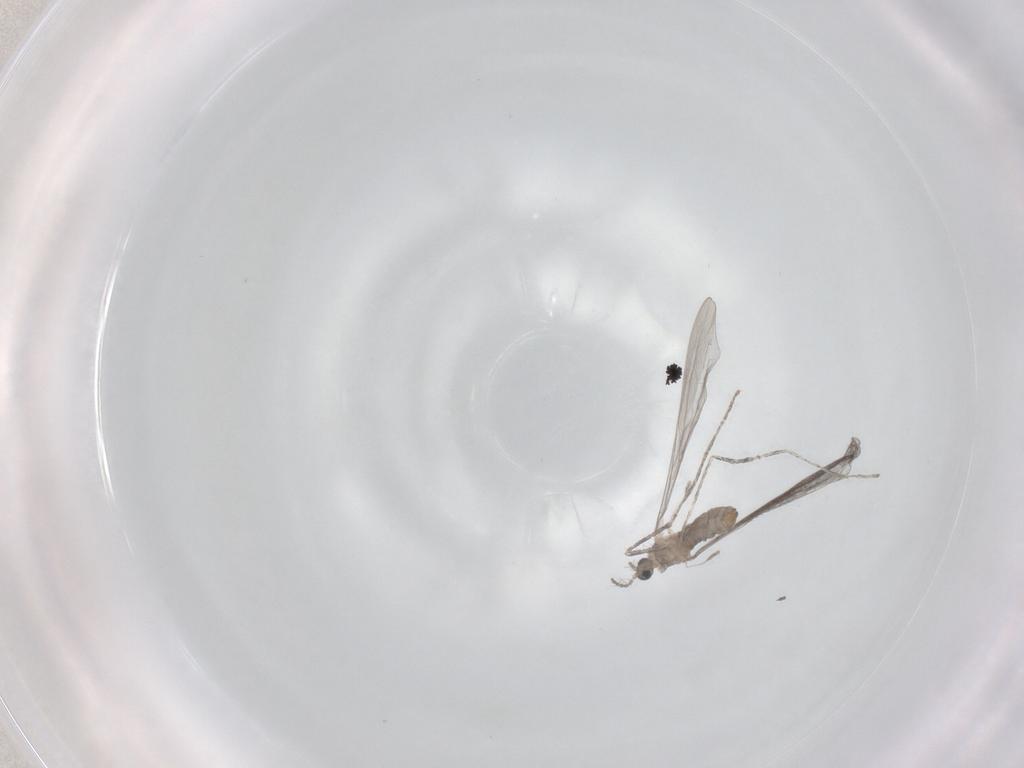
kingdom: Animalia
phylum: Arthropoda
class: Insecta
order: Diptera
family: Cecidomyiidae
